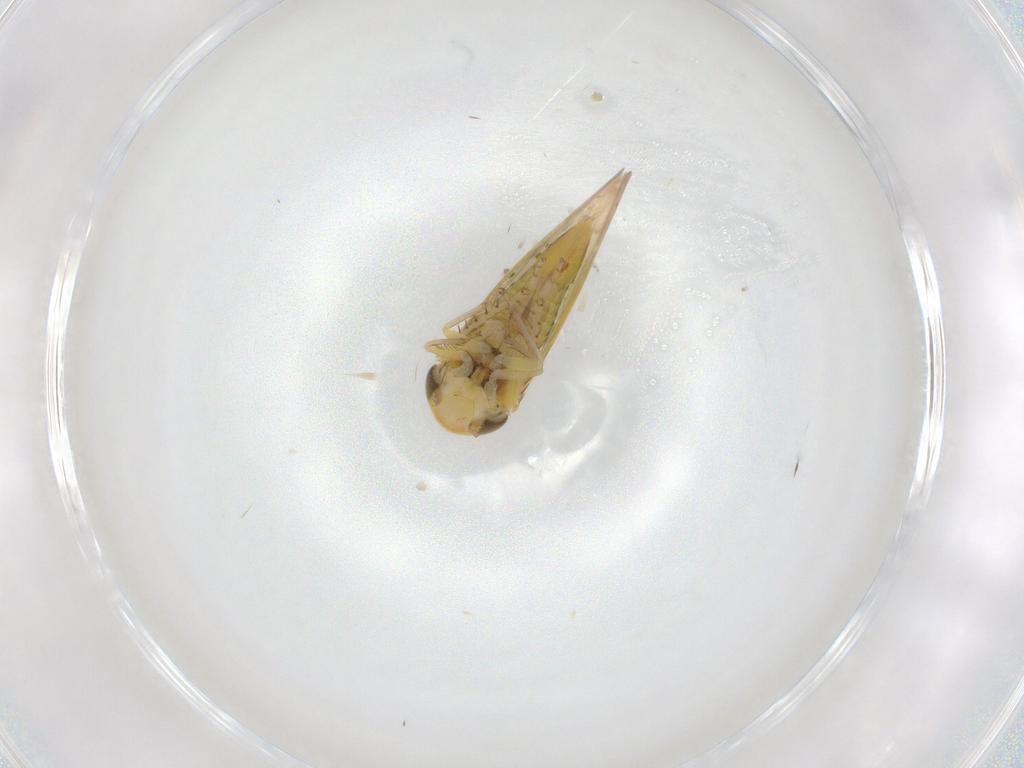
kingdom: Animalia
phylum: Arthropoda
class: Insecta
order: Hemiptera
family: Cicadellidae
